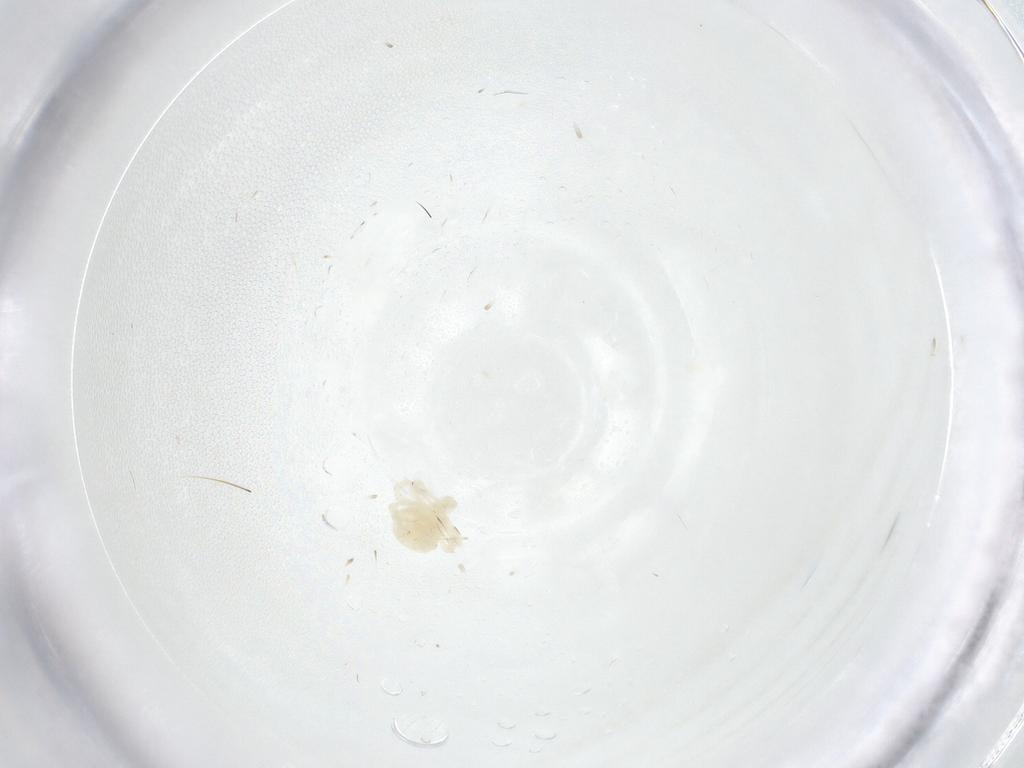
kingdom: Animalia
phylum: Arthropoda
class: Arachnida
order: Trombidiformes
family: Anystidae
